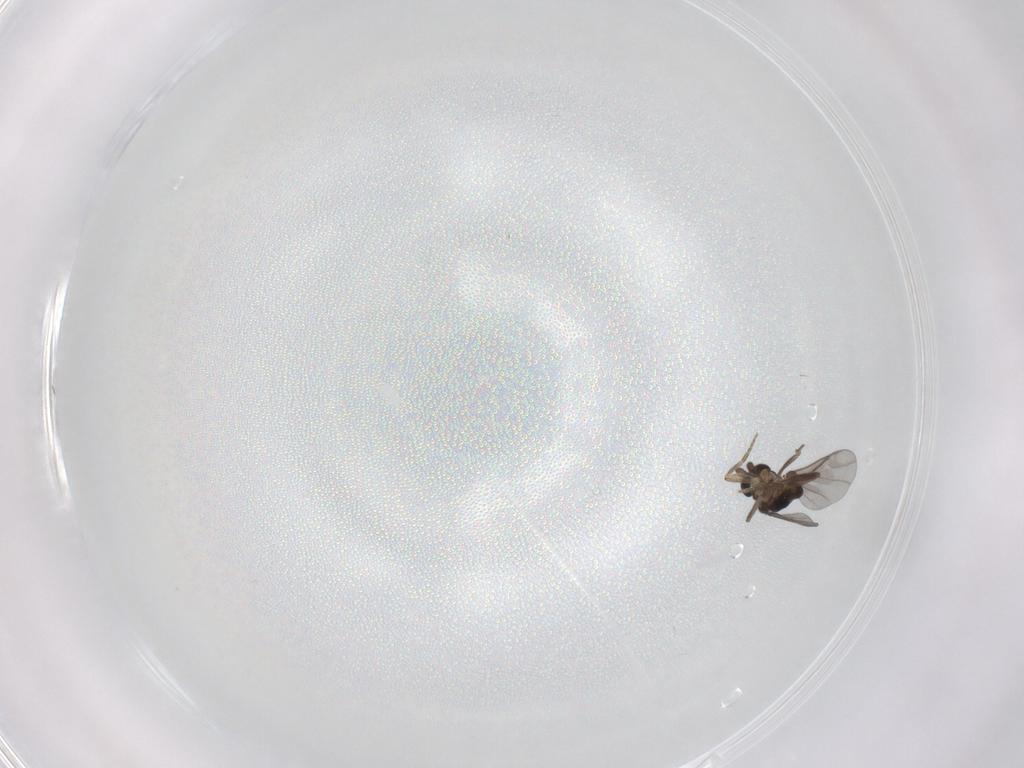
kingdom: Animalia
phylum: Arthropoda
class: Insecta
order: Diptera
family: Chironomidae
